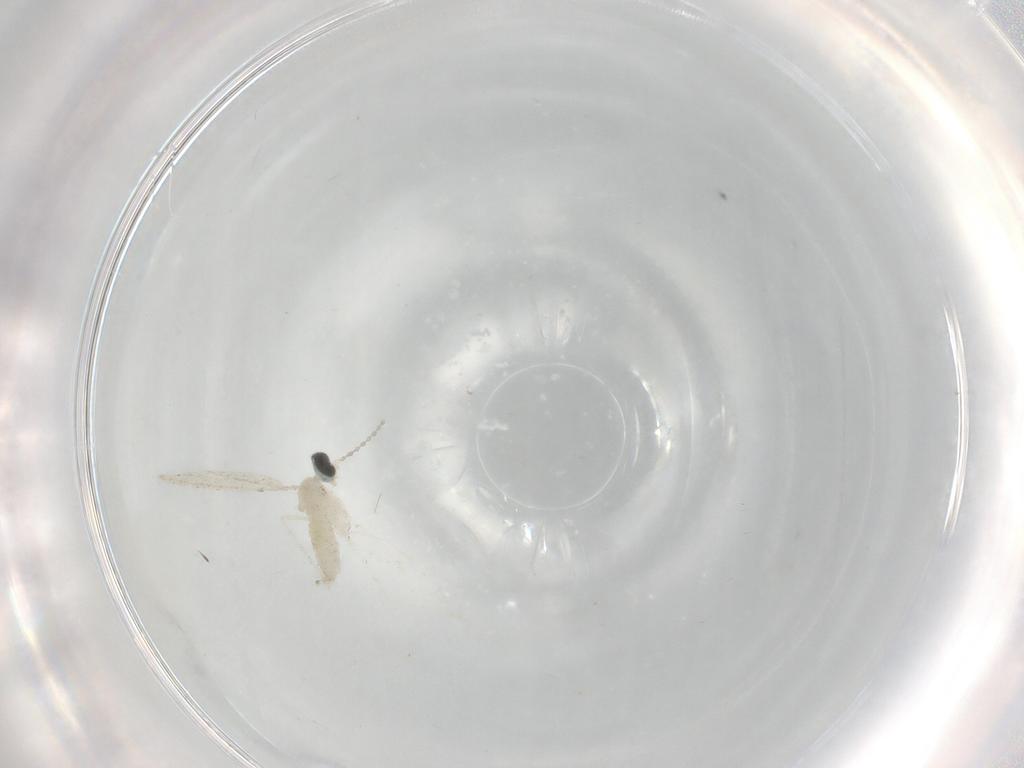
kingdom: Animalia
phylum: Arthropoda
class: Insecta
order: Diptera
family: Cecidomyiidae
